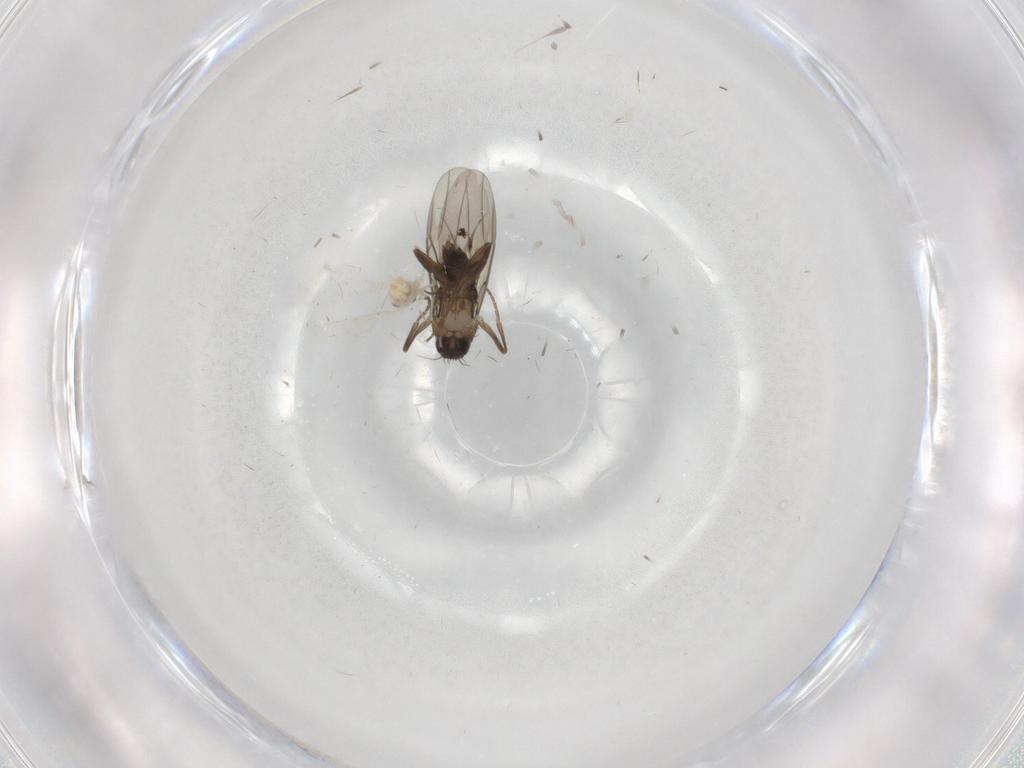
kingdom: Animalia
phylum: Arthropoda
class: Insecta
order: Diptera
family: Phoridae
